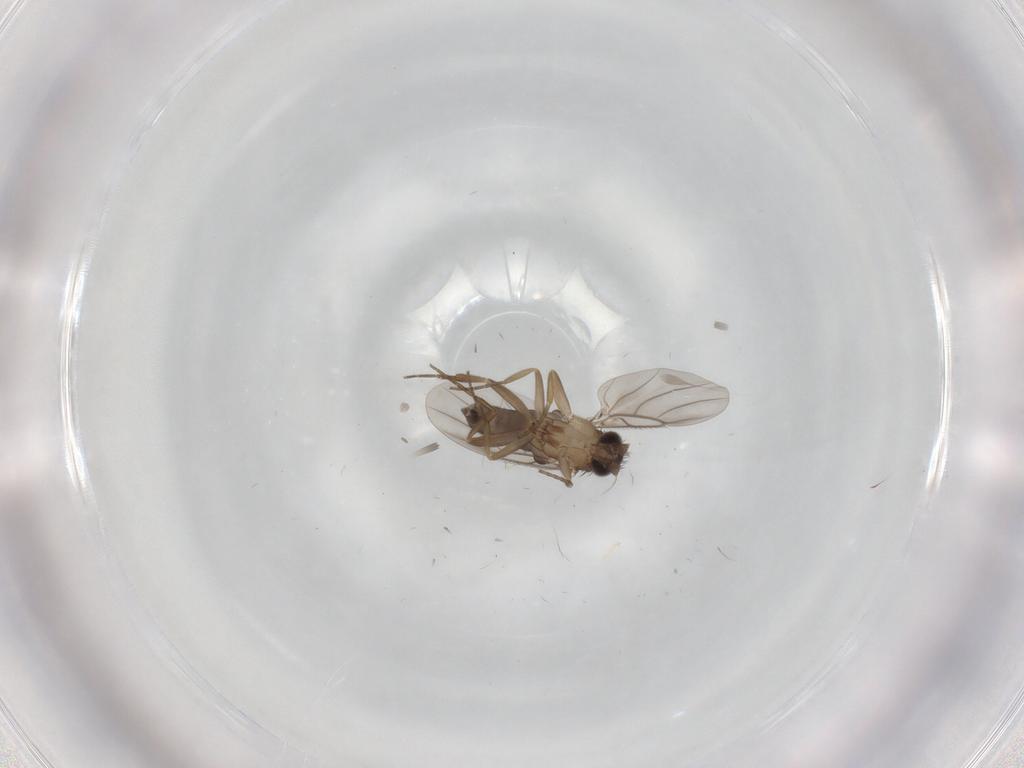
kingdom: Animalia
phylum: Arthropoda
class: Insecta
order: Diptera
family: Cecidomyiidae
